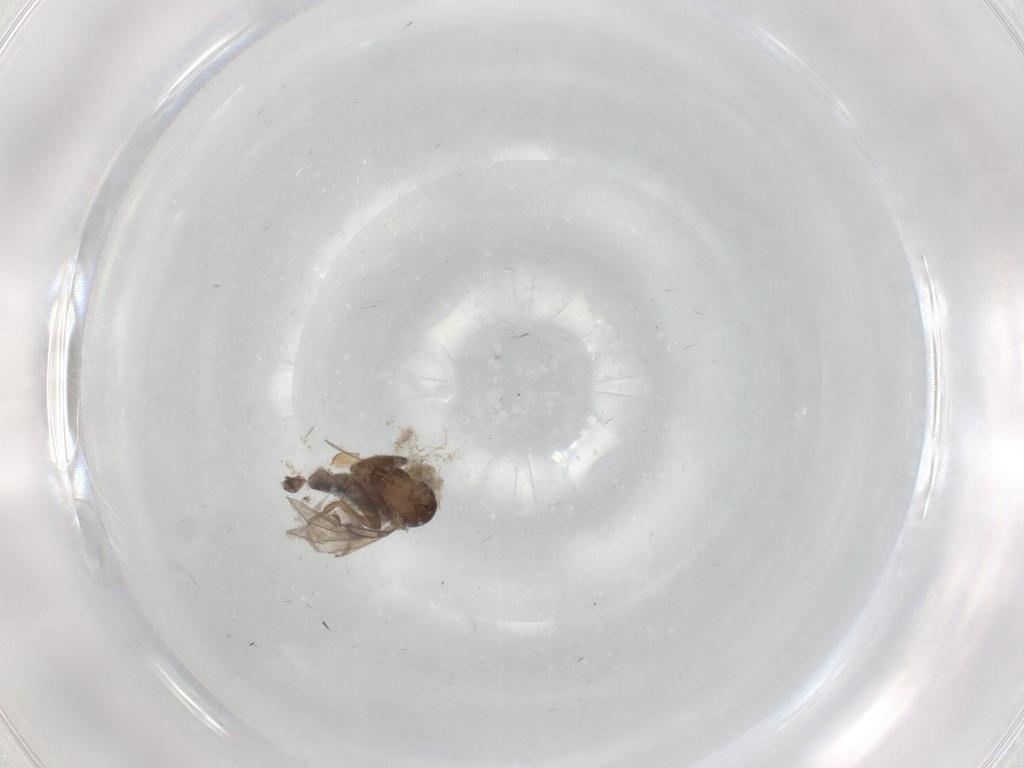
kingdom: Animalia
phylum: Arthropoda
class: Insecta
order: Diptera
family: Phoridae
